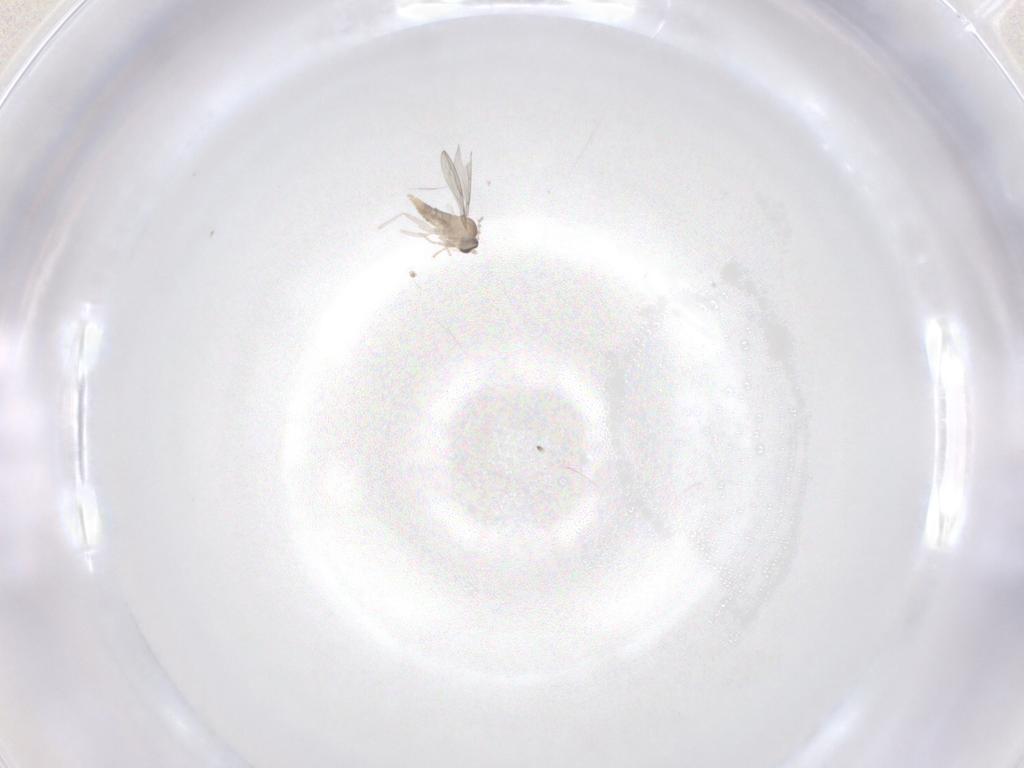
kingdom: Animalia
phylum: Arthropoda
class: Insecta
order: Diptera
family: Cecidomyiidae
